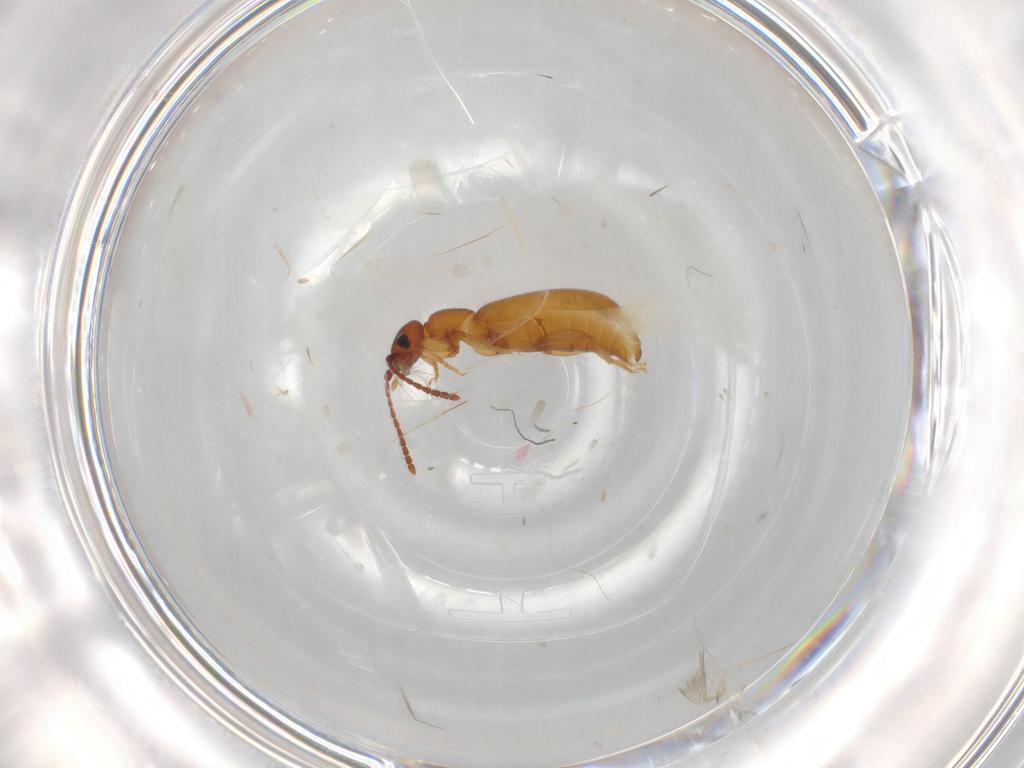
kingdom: Animalia
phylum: Arthropoda
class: Insecta
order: Coleoptera
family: Staphylinidae
